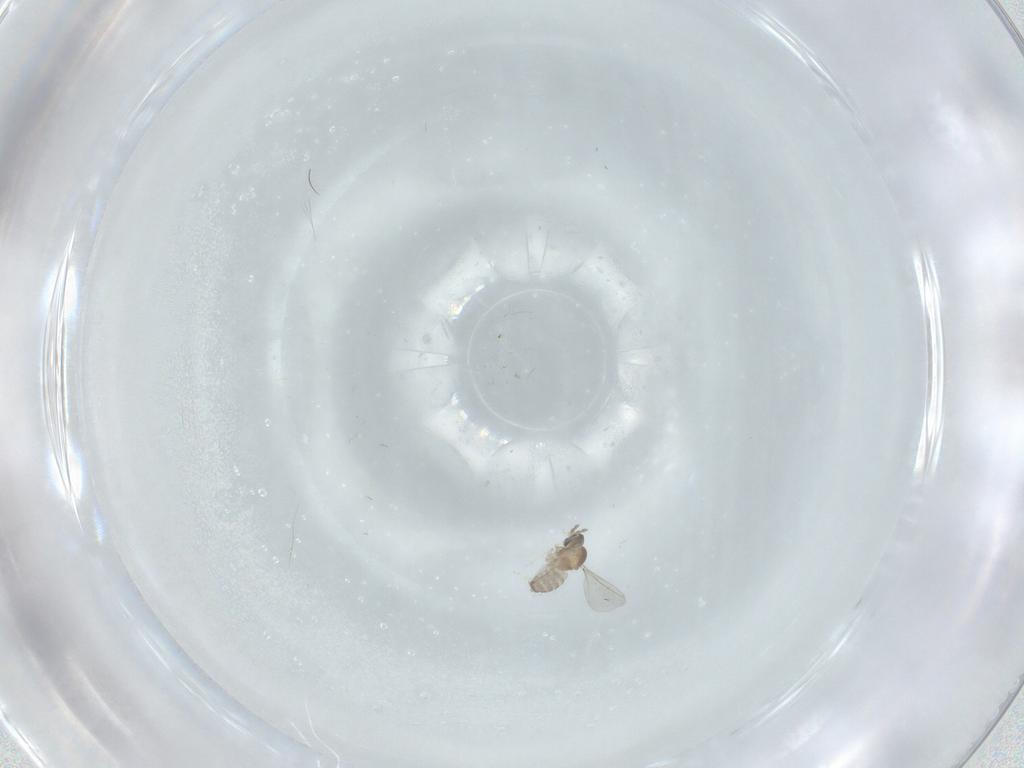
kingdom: Animalia
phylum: Arthropoda
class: Insecta
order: Diptera
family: Cecidomyiidae
